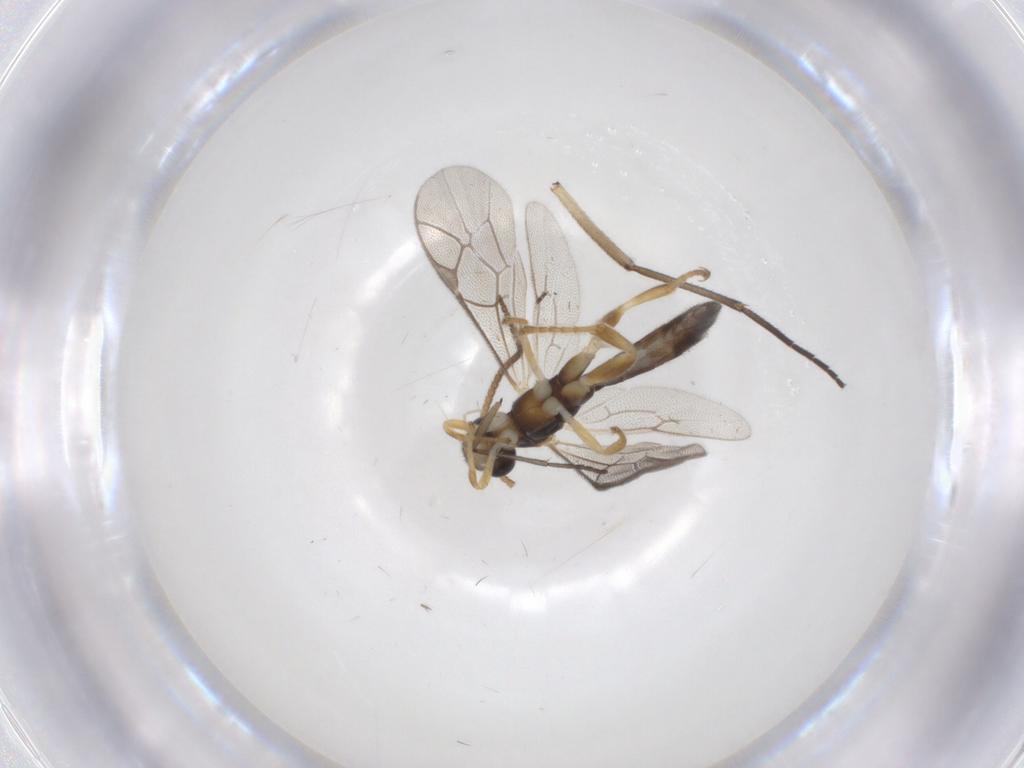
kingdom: Animalia
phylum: Arthropoda
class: Insecta
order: Hymenoptera
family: Ichneumonidae
